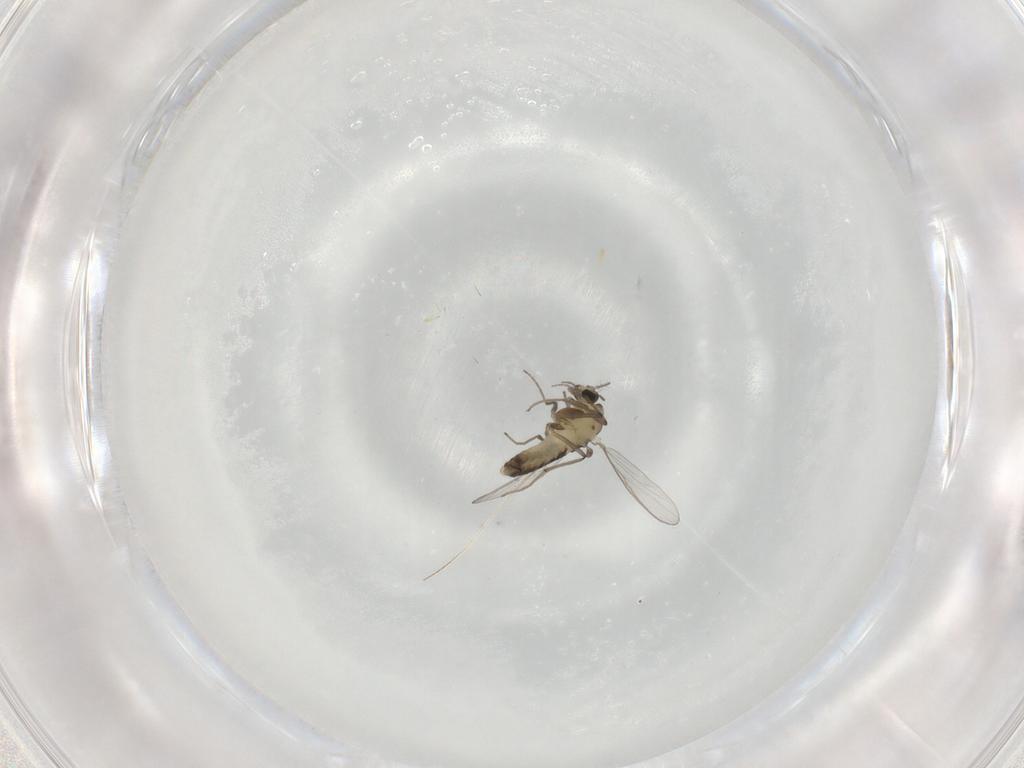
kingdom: Animalia
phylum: Arthropoda
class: Insecta
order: Diptera
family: Chironomidae
